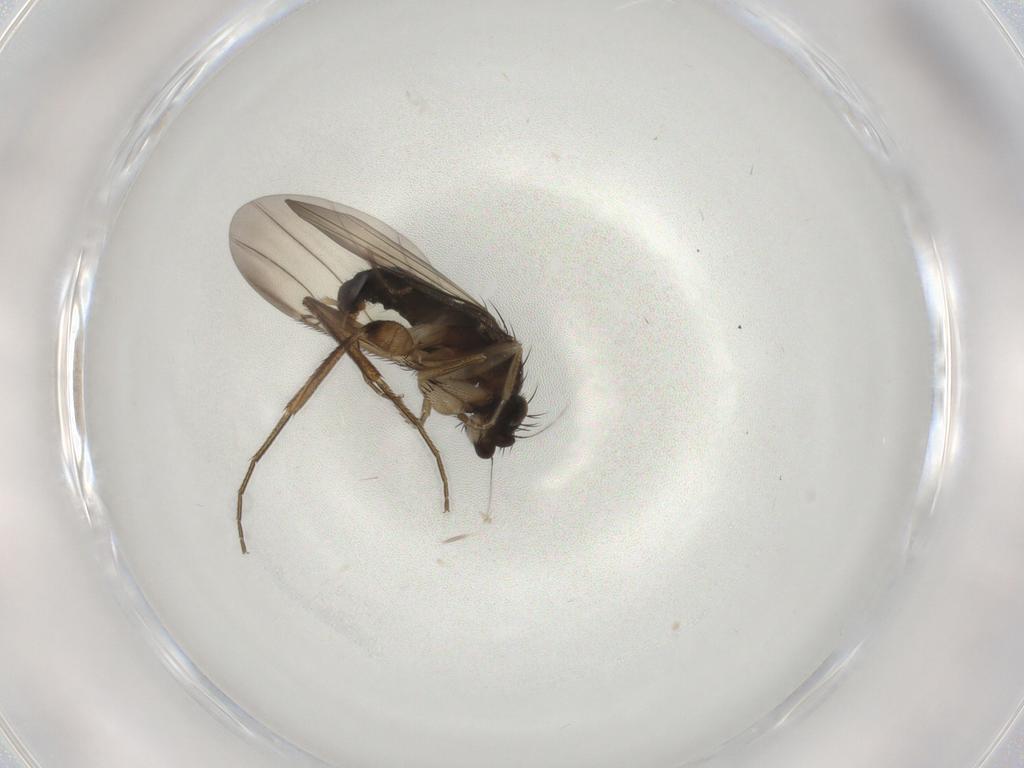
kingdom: Animalia
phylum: Arthropoda
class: Insecta
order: Diptera
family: Phoridae
